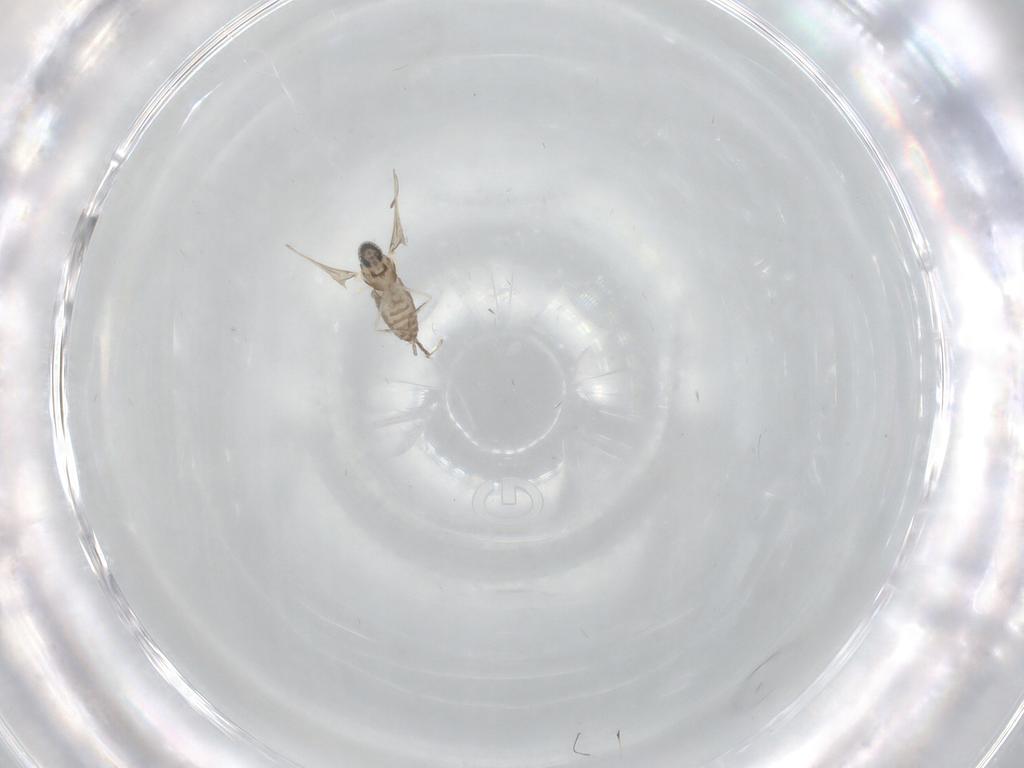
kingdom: Animalia
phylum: Arthropoda
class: Insecta
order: Diptera
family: Cecidomyiidae
